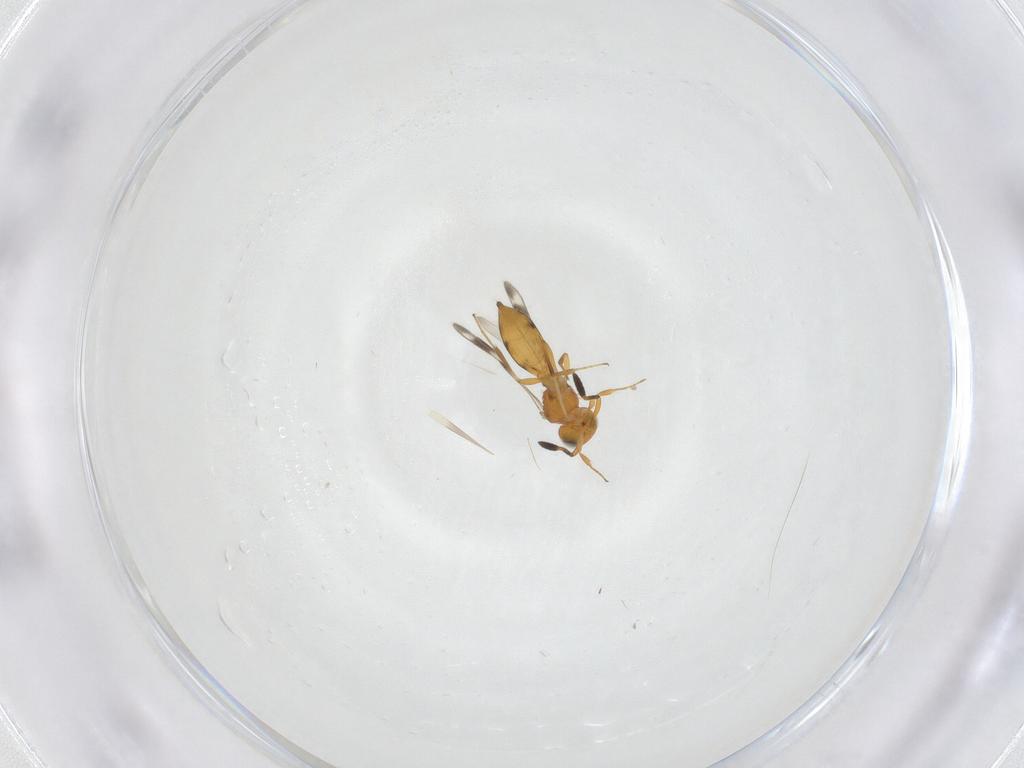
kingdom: Animalia
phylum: Arthropoda
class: Insecta
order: Hymenoptera
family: Scelionidae
